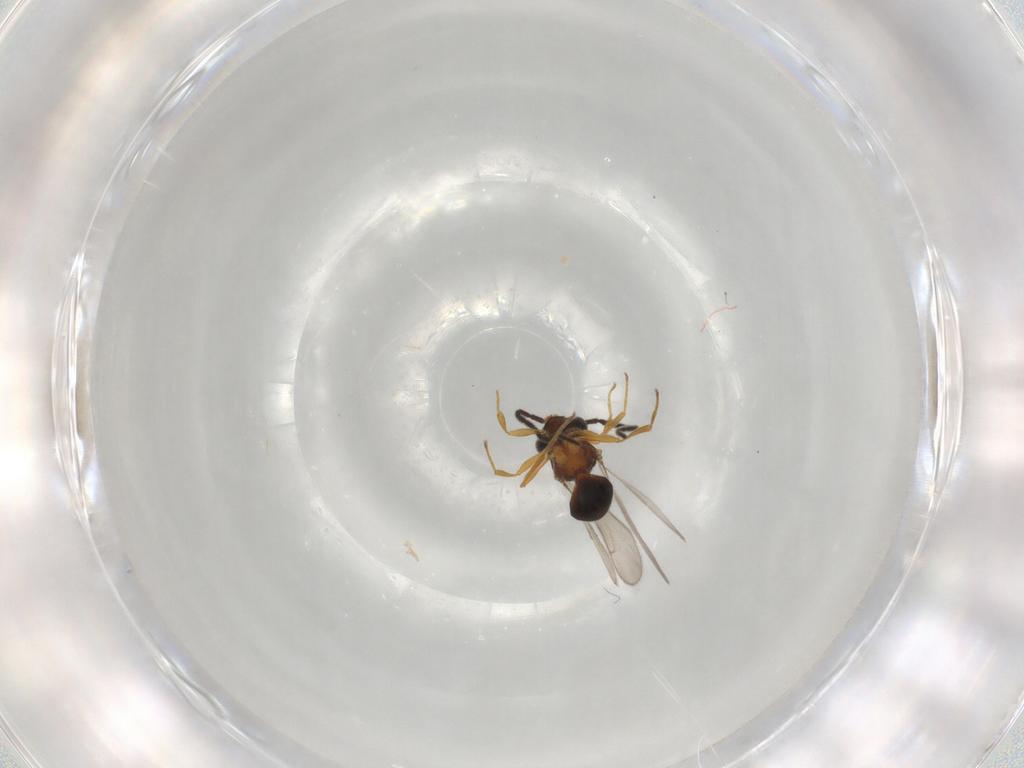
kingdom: Animalia
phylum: Arthropoda
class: Insecta
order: Hymenoptera
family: Scelionidae
